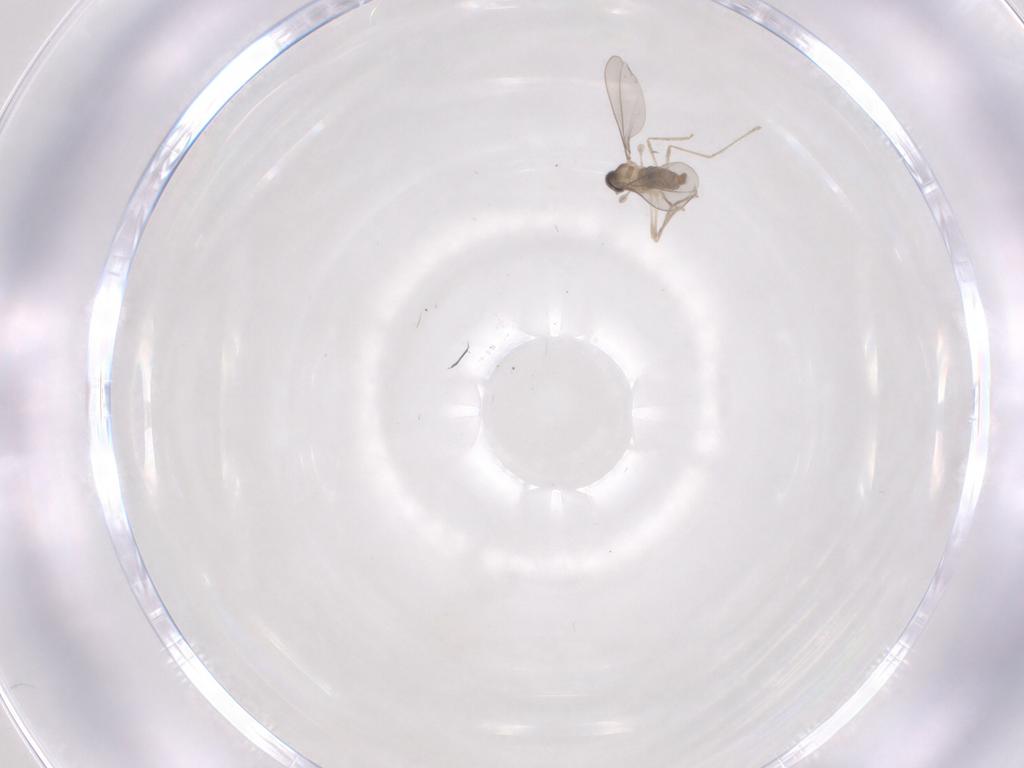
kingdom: Animalia
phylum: Arthropoda
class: Insecta
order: Diptera
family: Cecidomyiidae
